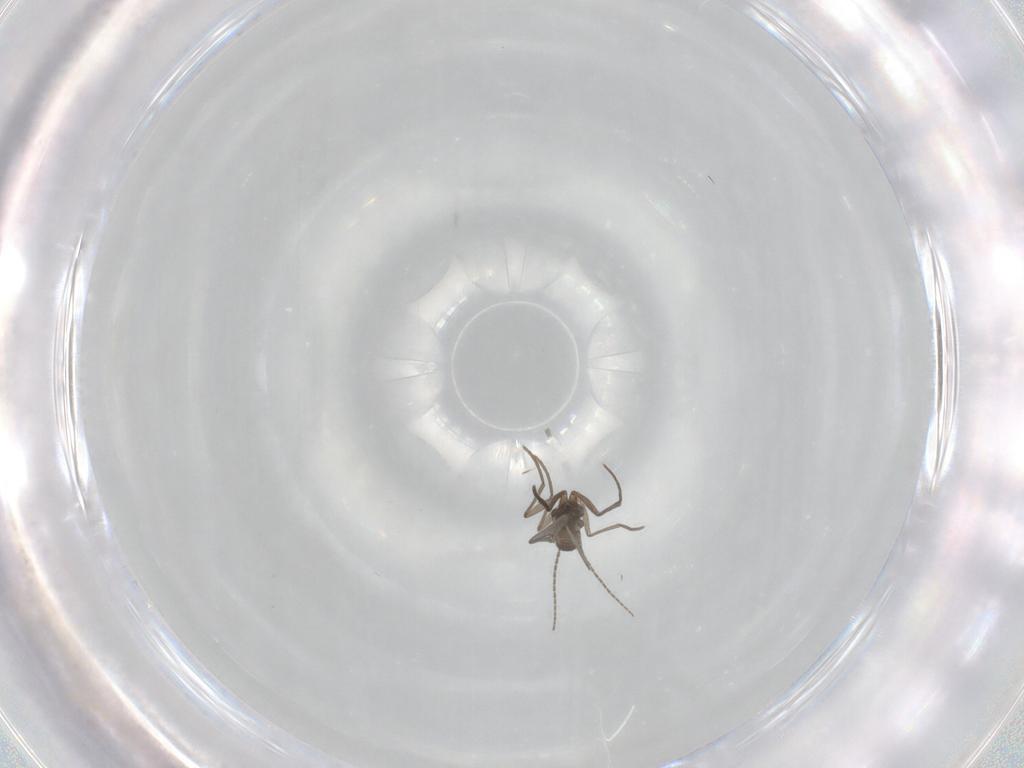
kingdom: Animalia
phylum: Arthropoda
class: Insecta
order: Diptera
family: Sciaridae
